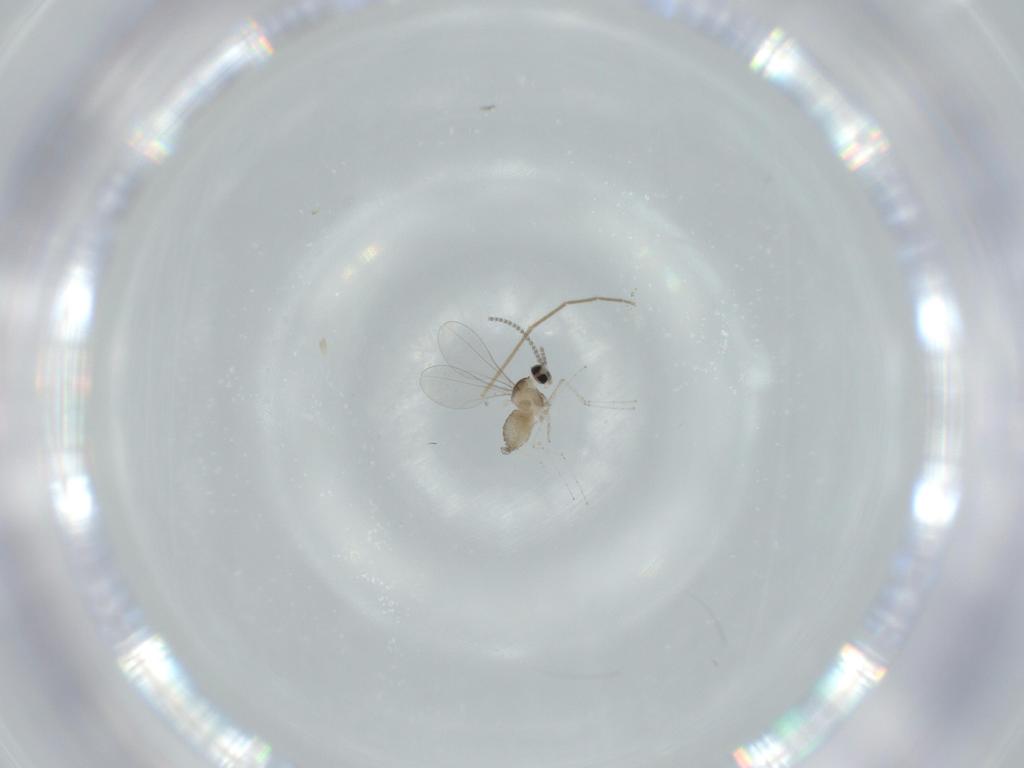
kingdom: Animalia
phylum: Arthropoda
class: Insecta
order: Diptera
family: Cecidomyiidae
